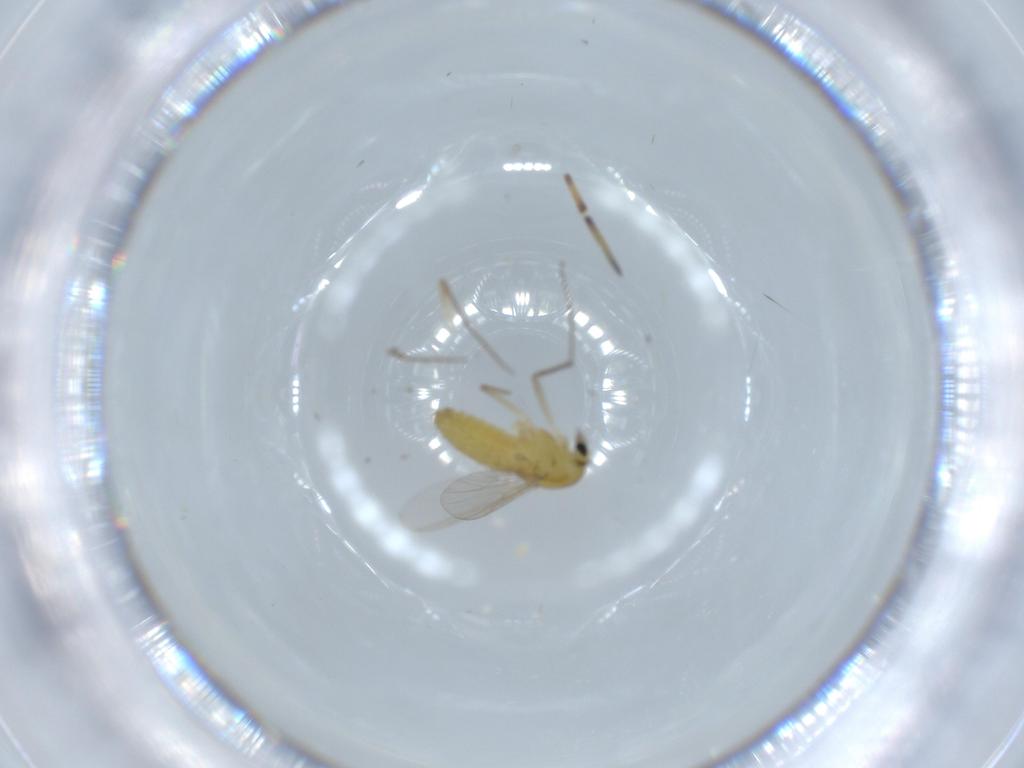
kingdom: Animalia
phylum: Arthropoda
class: Insecta
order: Diptera
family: Chironomidae
